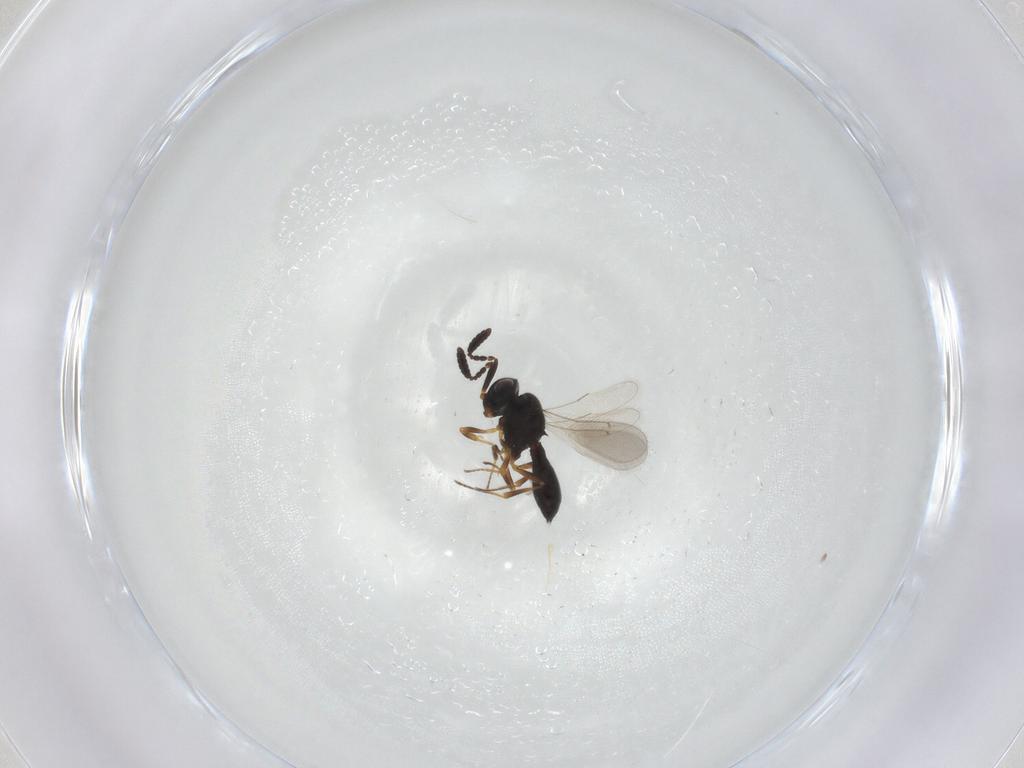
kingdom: Animalia
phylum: Arthropoda
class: Insecta
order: Hymenoptera
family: Scelionidae
